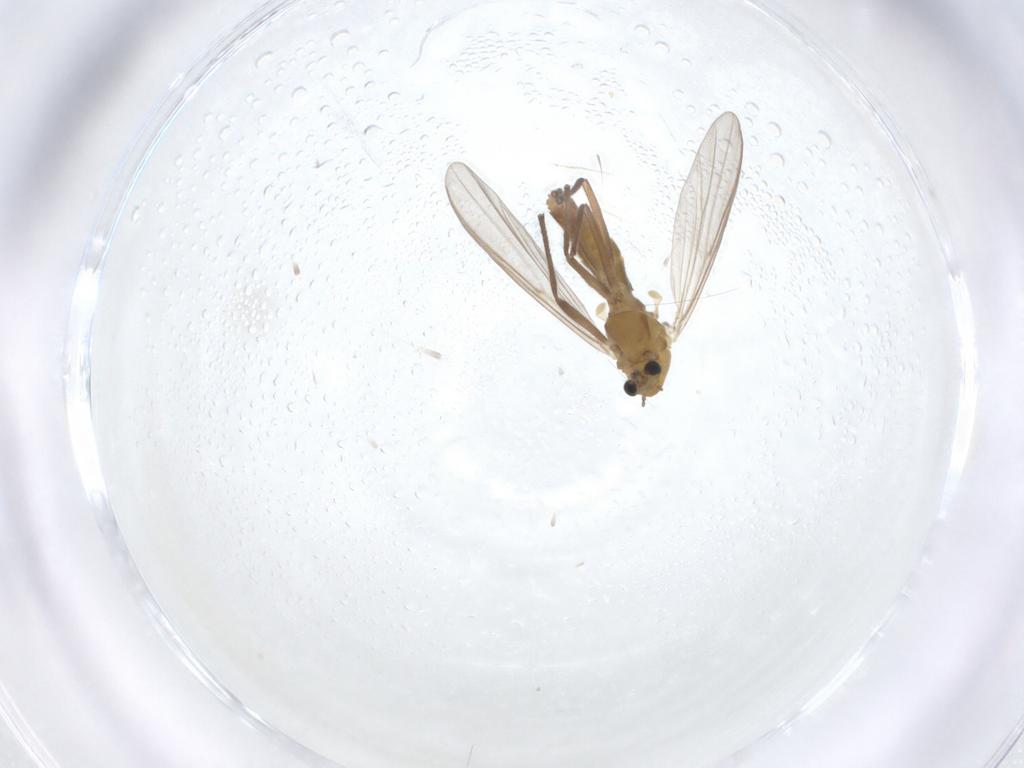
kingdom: Animalia
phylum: Arthropoda
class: Insecta
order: Diptera
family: Chironomidae
